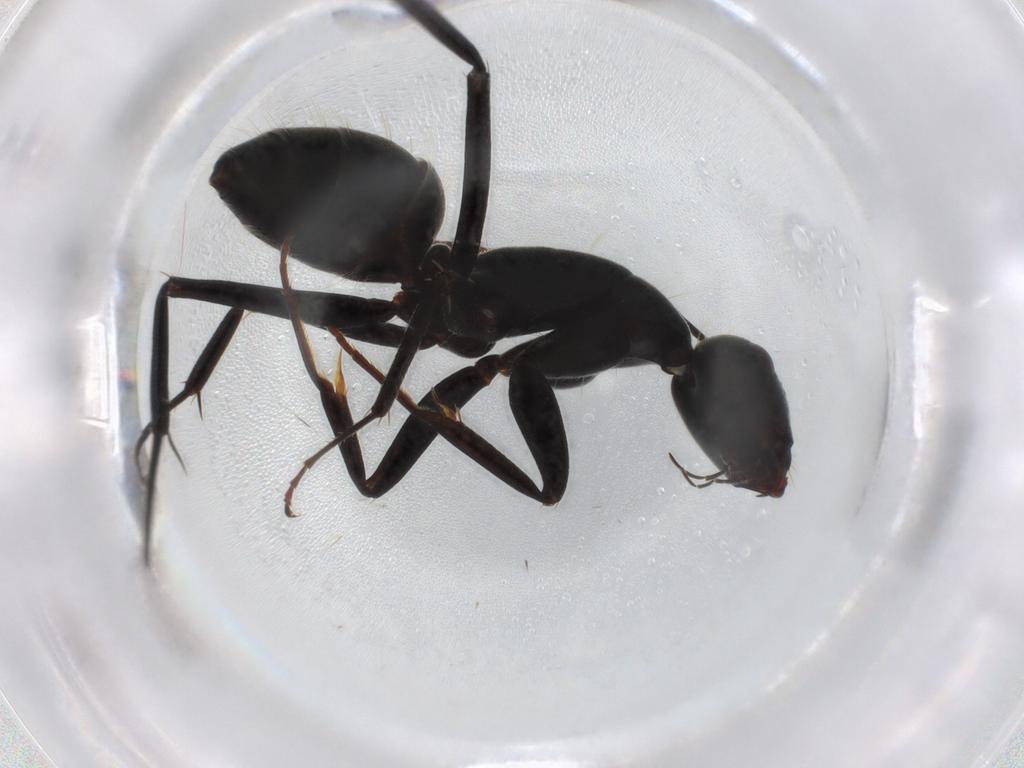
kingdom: Animalia
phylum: Arthropoda
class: Insecta
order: Hymenoptera
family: Formicidae
